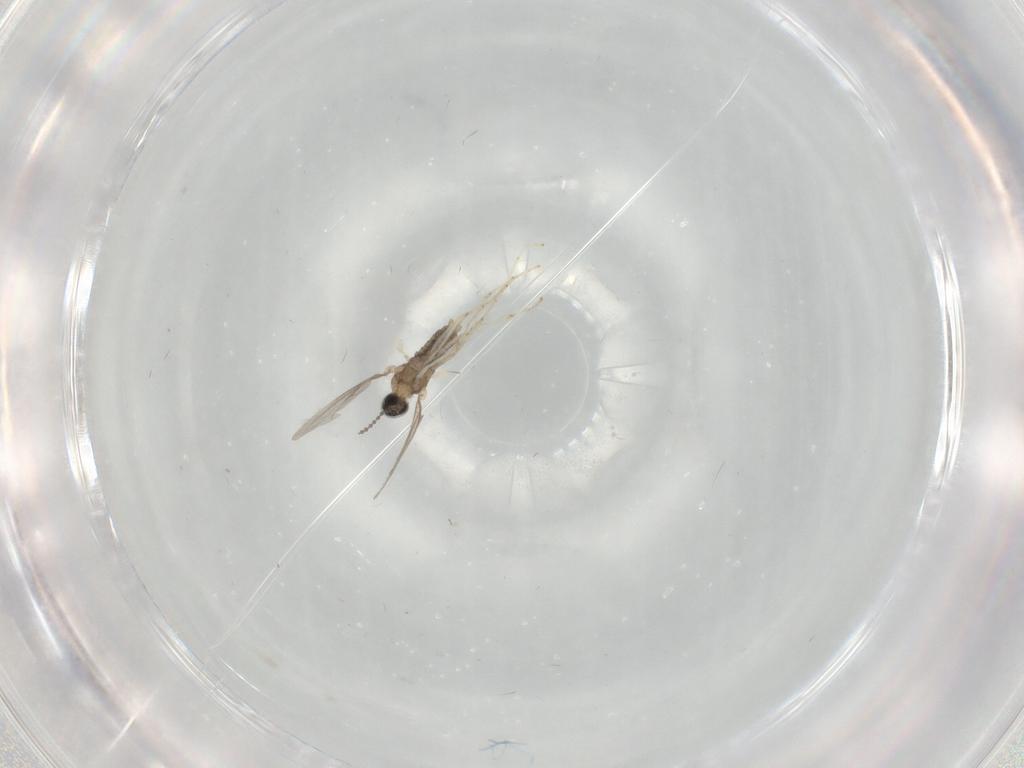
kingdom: Animalia
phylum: Arthropoda
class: Insecta
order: Diptera
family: Cecidomyiidae
